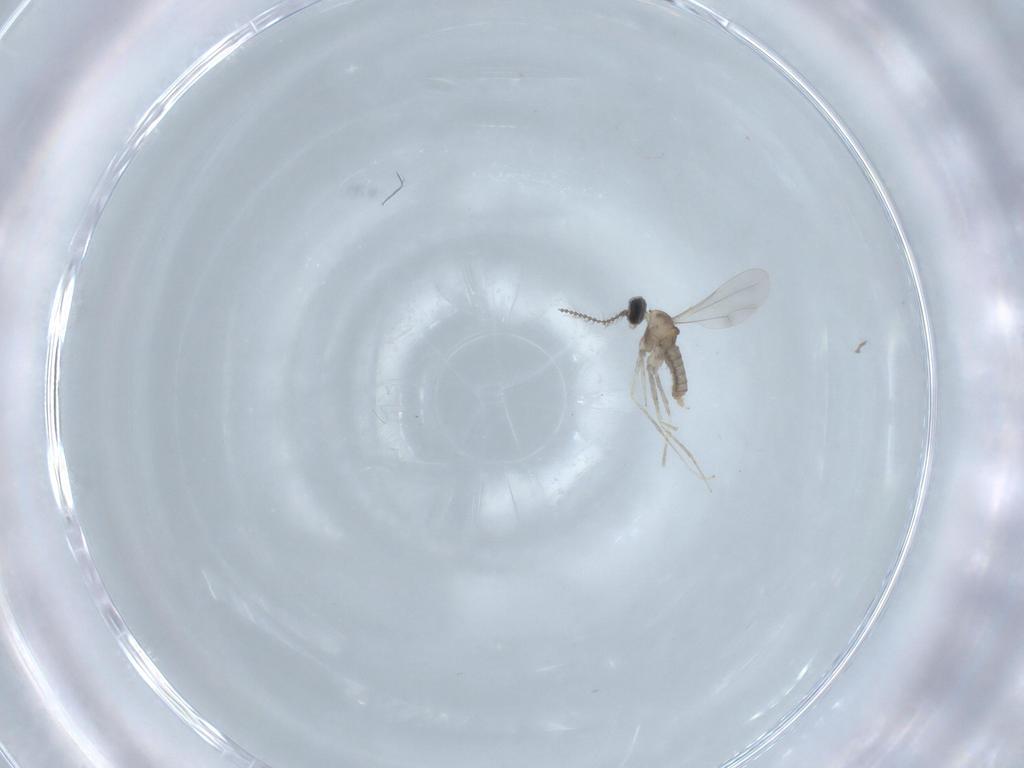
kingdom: Animalia
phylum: Arthropoda
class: Insecta
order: Diptera
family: Cecidomyiidae
